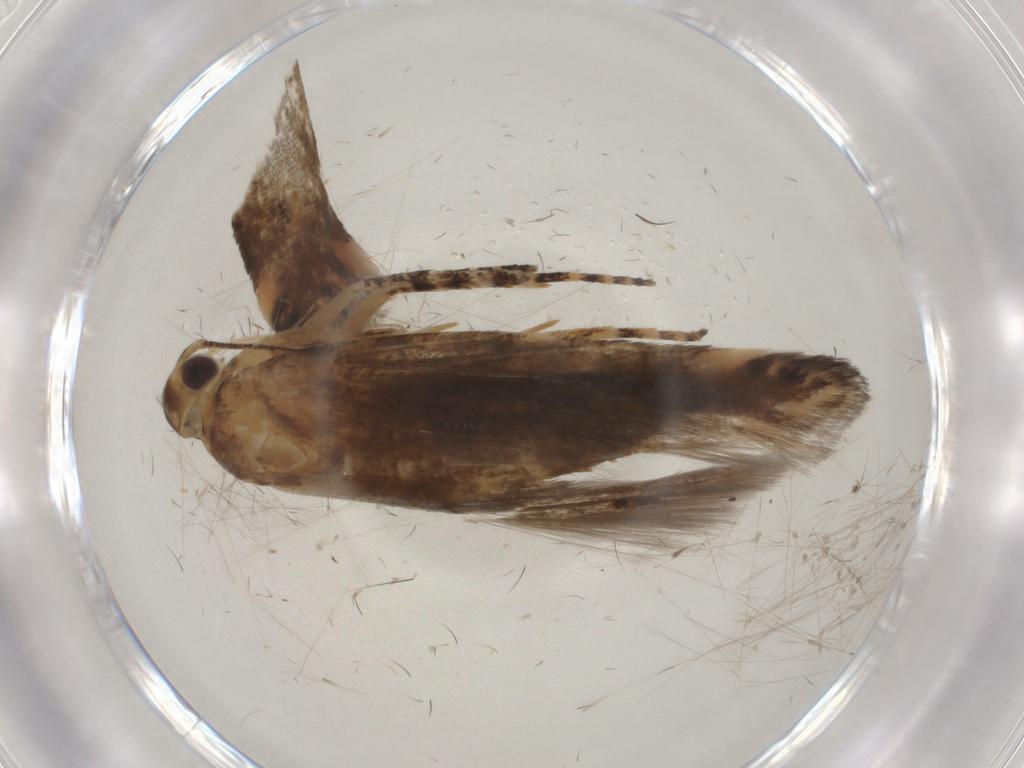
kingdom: Animalia
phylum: Arthropoda
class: Insecta
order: Lepidoptera
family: Gelechiidae
